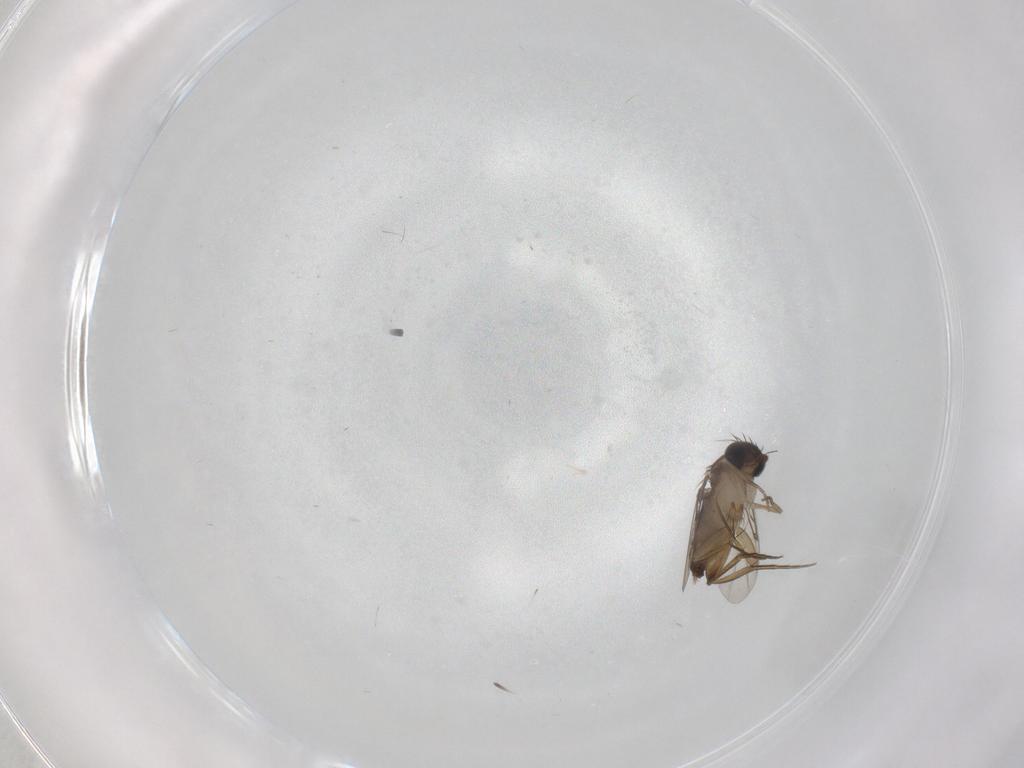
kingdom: Animalia
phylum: Arthropoda
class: Insecta
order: Diptera
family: Phoridae
